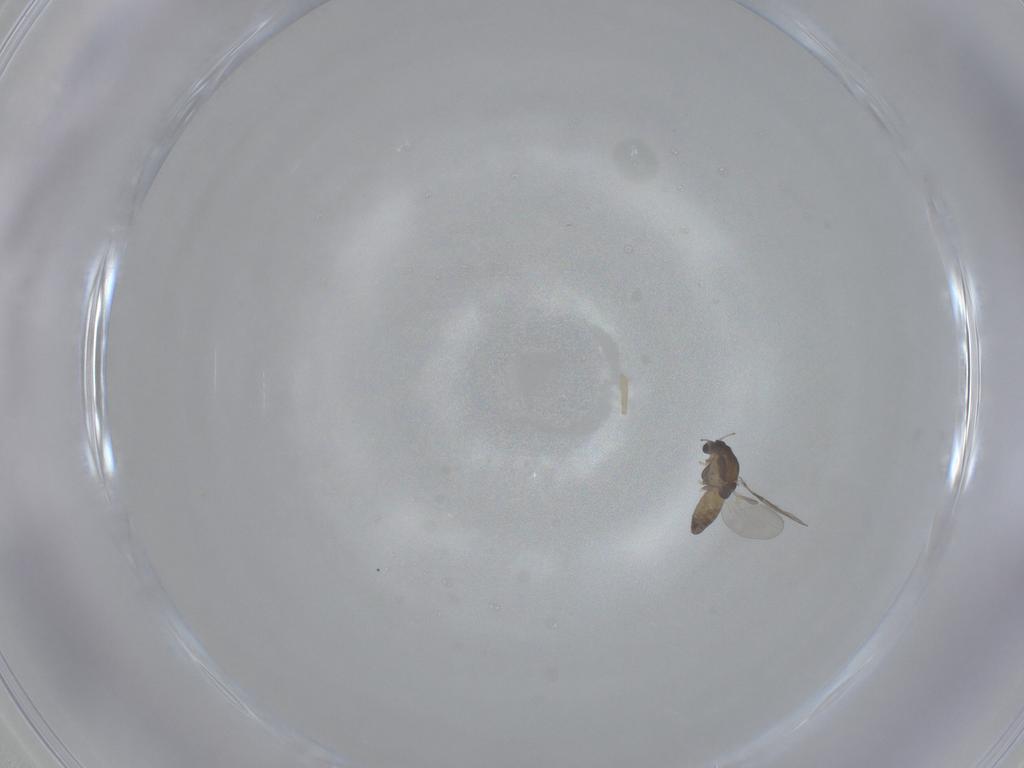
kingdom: Animalia
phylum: Arthropoda
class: Insecta
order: Diptera
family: Chironomidae
